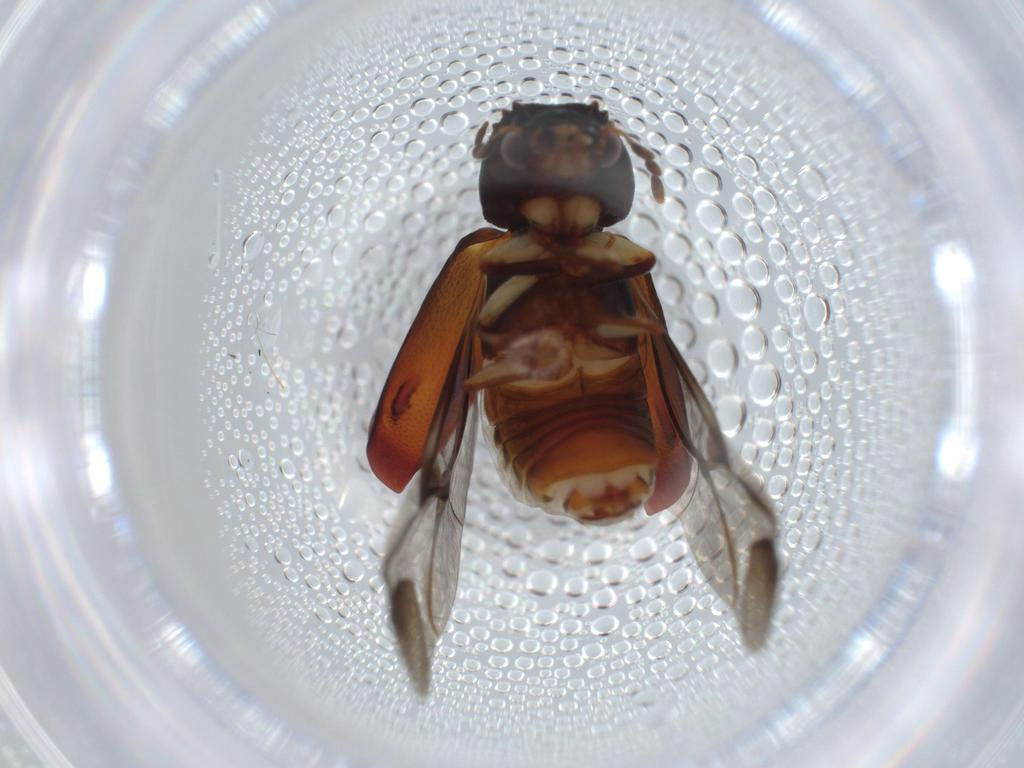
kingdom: Animalia
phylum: Arthropoda
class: Insecta
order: Coleoptera
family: Bostrichidae
